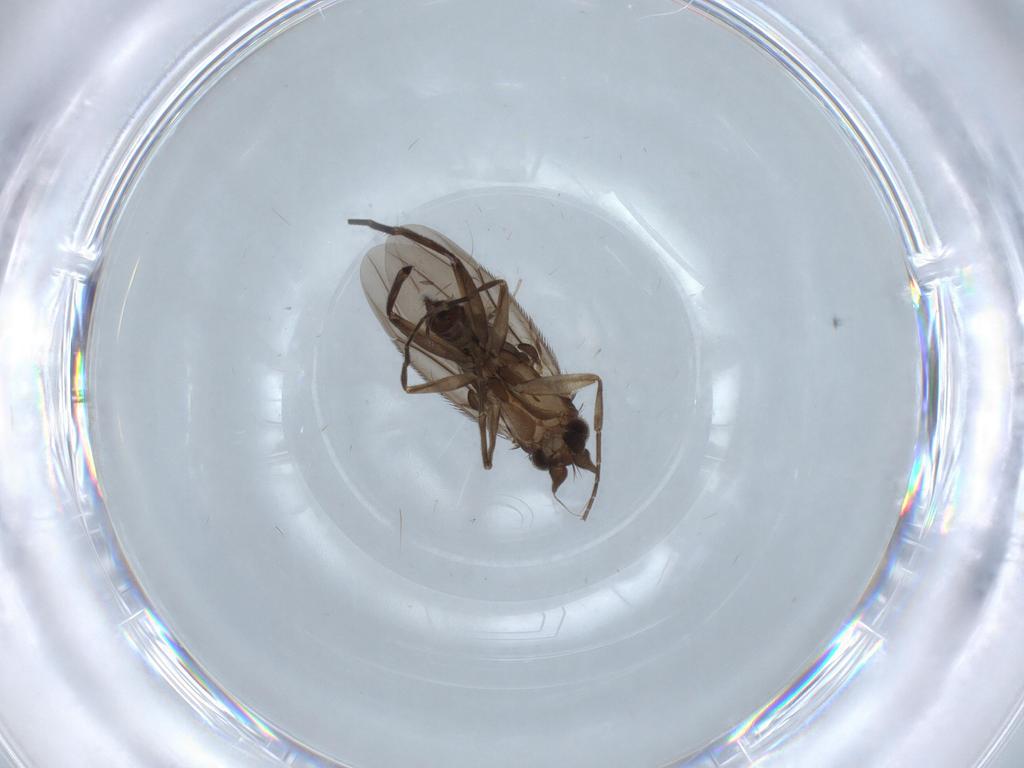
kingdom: Animalia
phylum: Arthropoda
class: Insecta
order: Diptera
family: Phoridae
